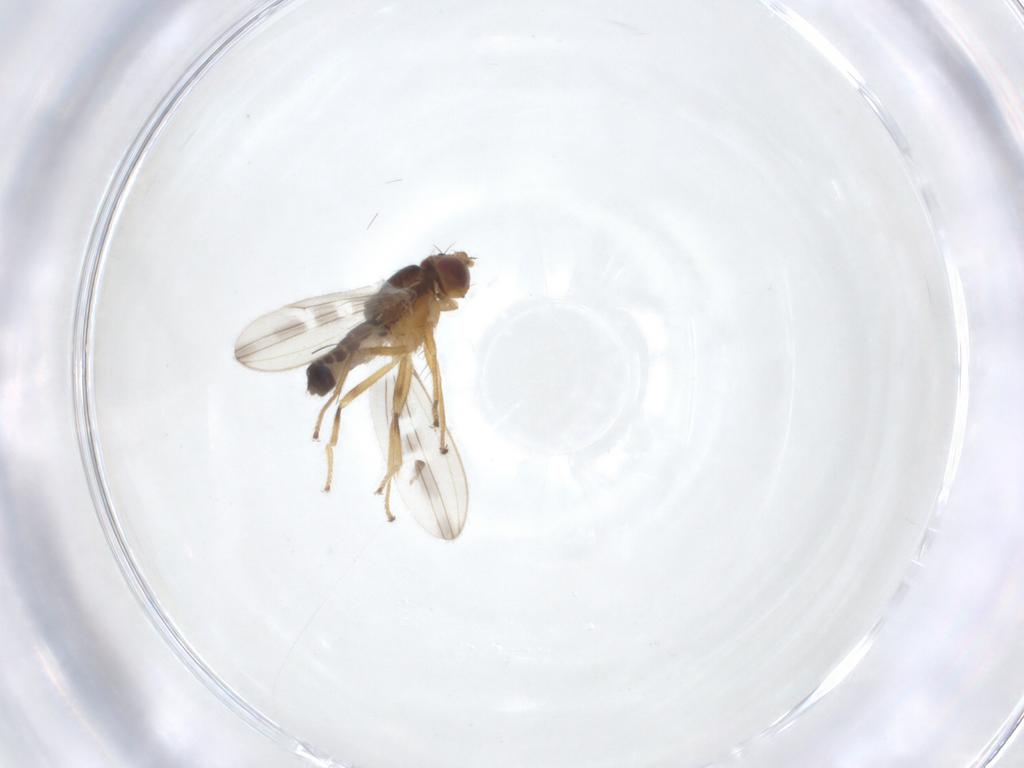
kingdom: Animalia
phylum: Arthropoda
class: Insecta
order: Diptera
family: Periscelididae
